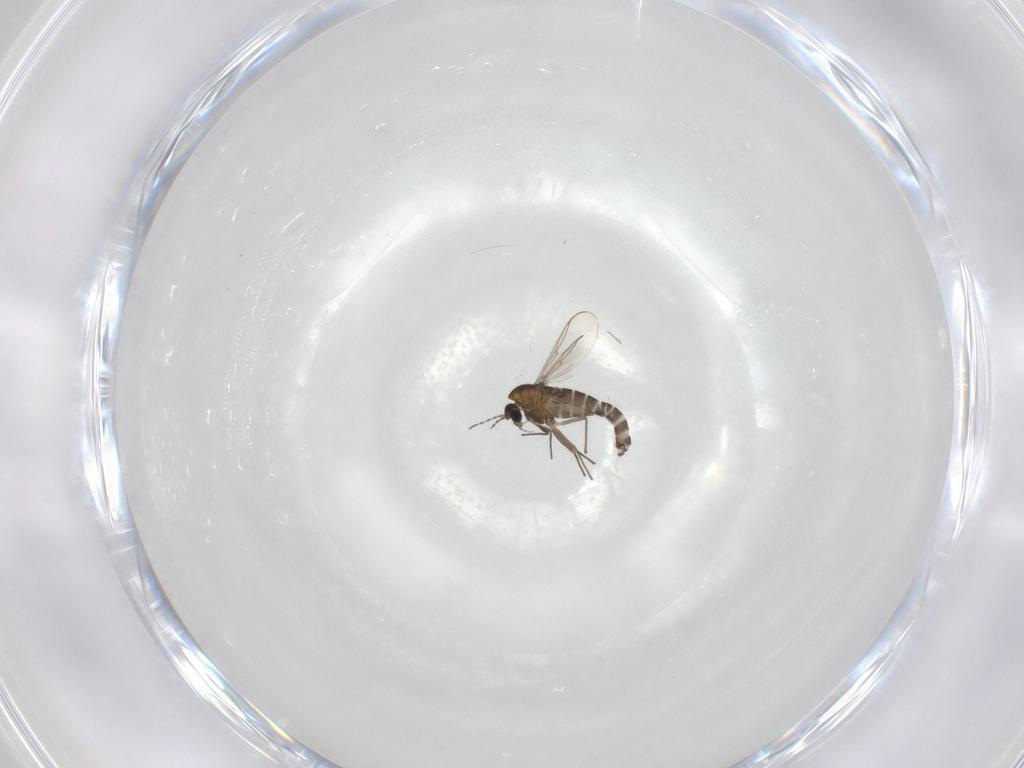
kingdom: Animalia
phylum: Arthropoda
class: Insecta
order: Diptera
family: Chironomidae
